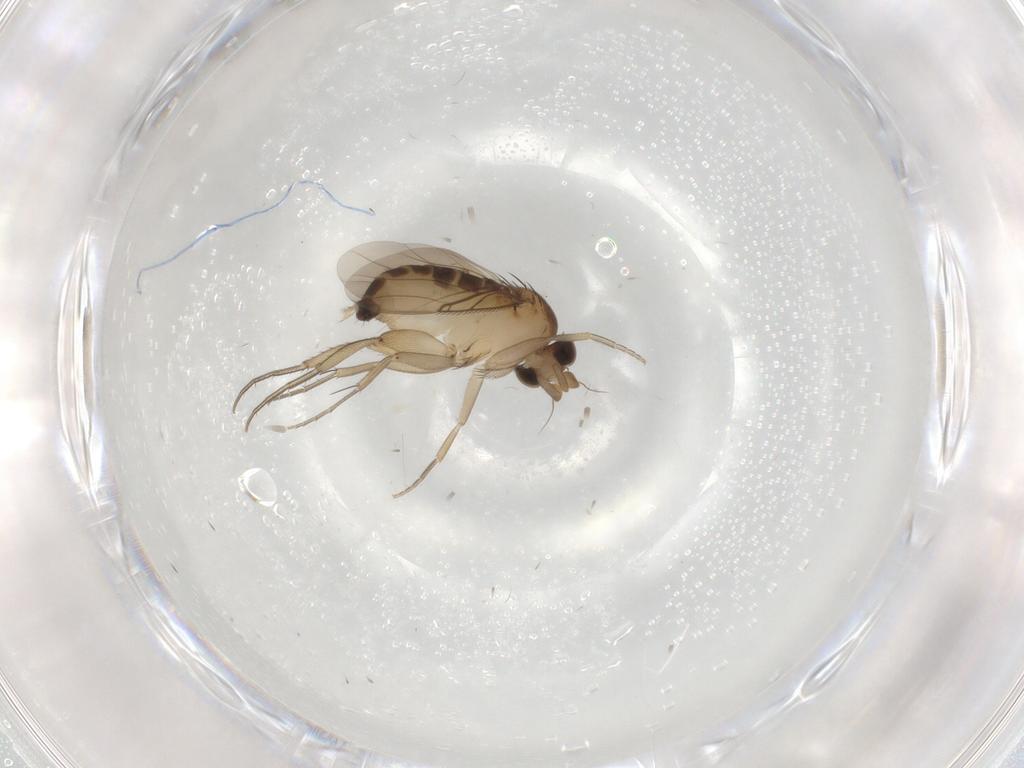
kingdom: Animalia
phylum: Arthropoda
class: Insecta
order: Diptera
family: Phoridae
